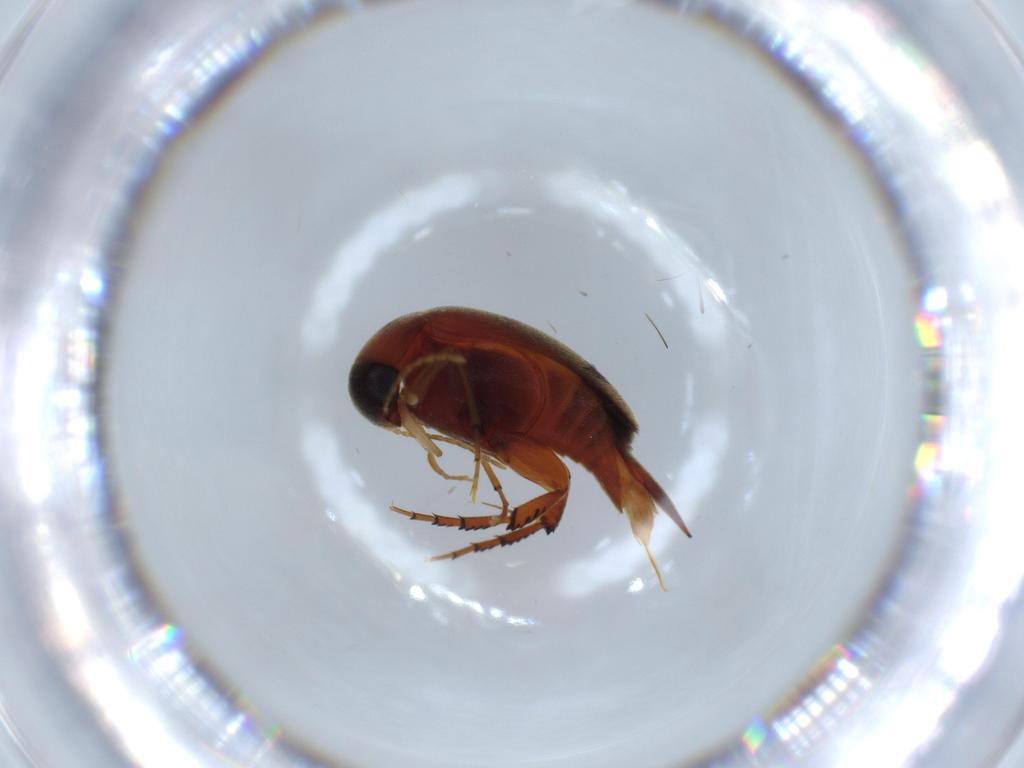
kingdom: Animalia
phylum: Arthropoda
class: Insecta
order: Coleoptera
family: Mordellidae
